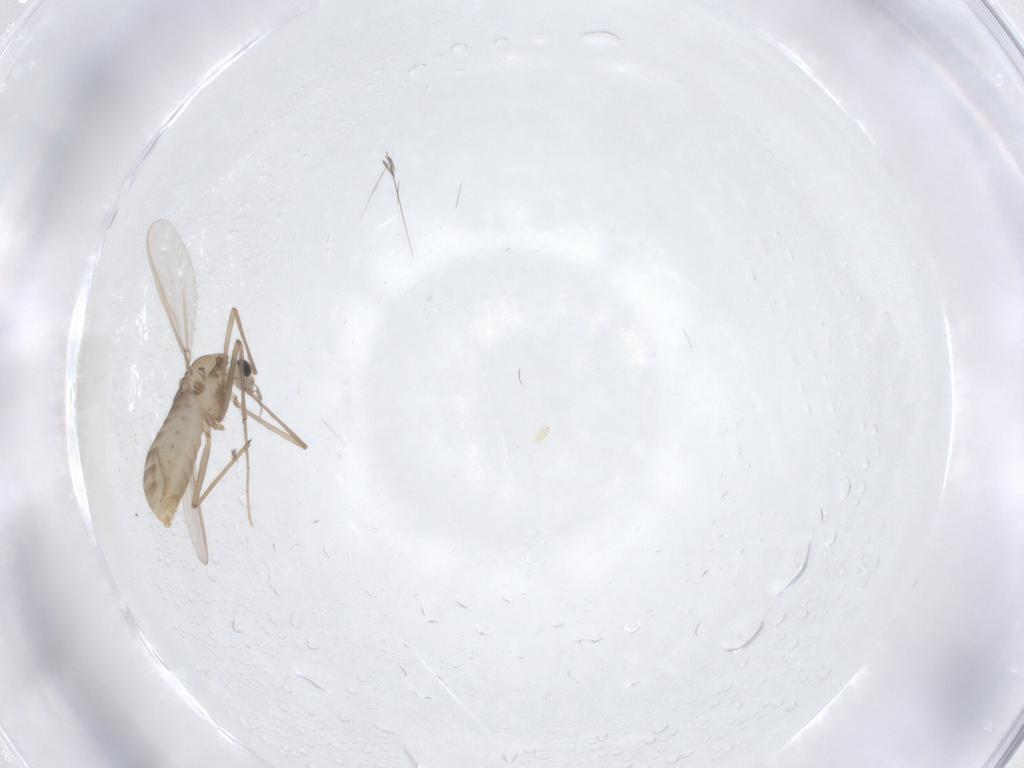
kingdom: Animalia
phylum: Arthropoda
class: Insecta
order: Diptera
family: Chironomidae
